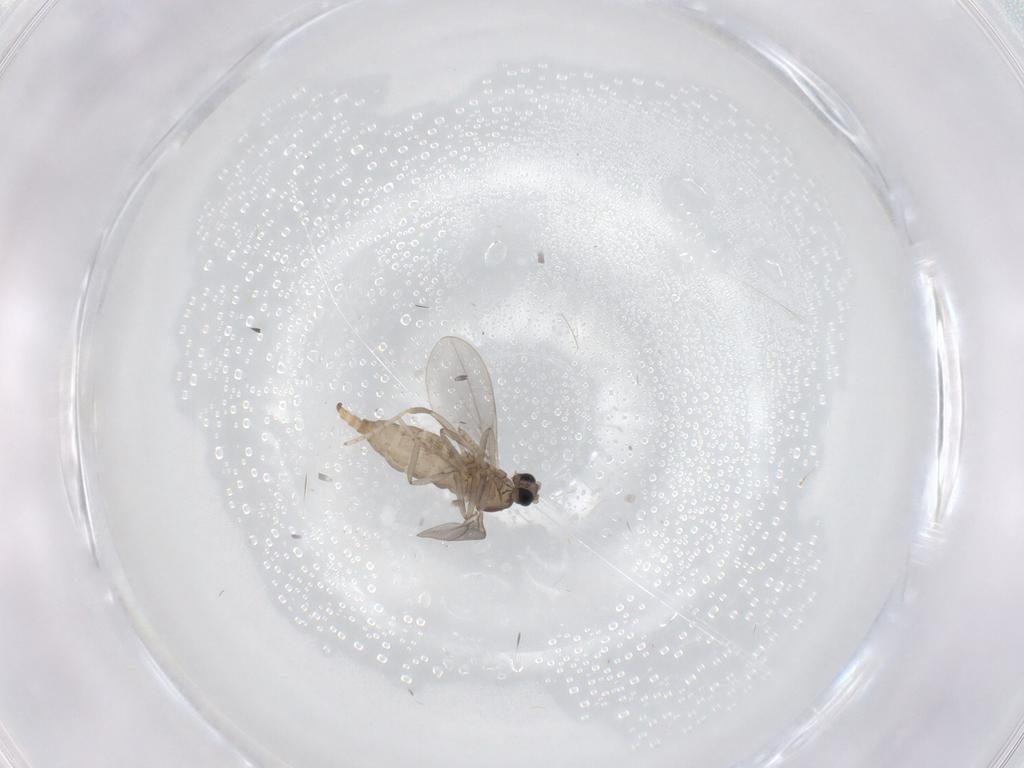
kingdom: Animalia
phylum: Arthropoda
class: Insecta
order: Diptera
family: Cecidomyiidae
